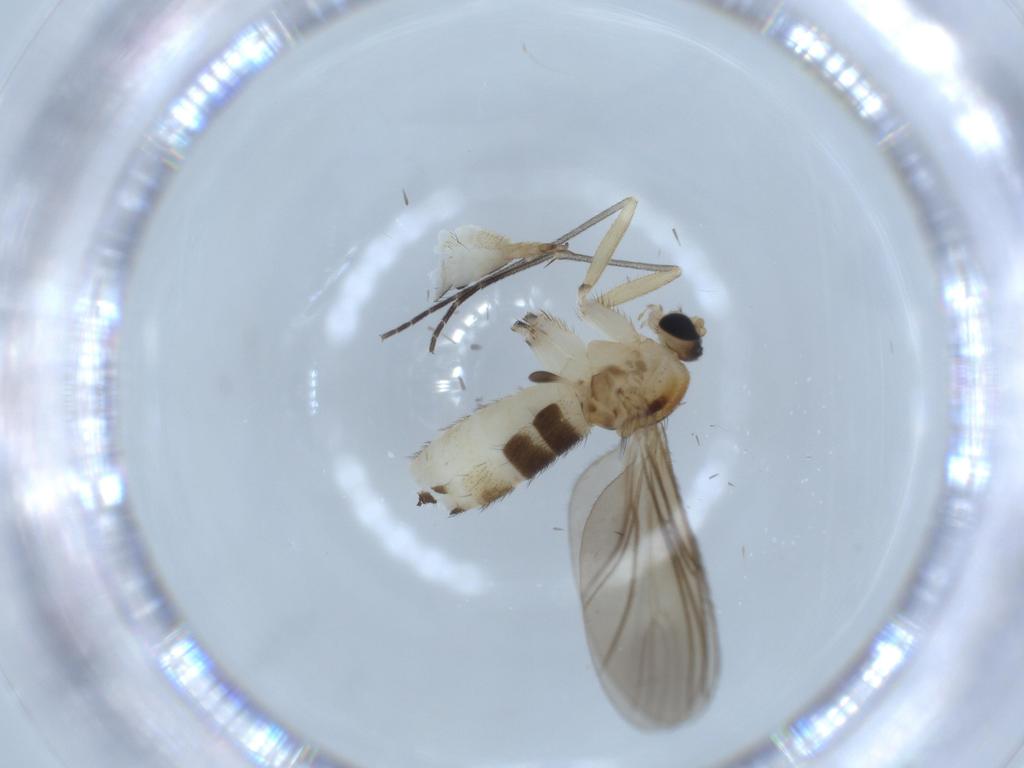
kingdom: Animalia
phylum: Arthropoda
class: Insecta
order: Diptera
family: Sciaridae
